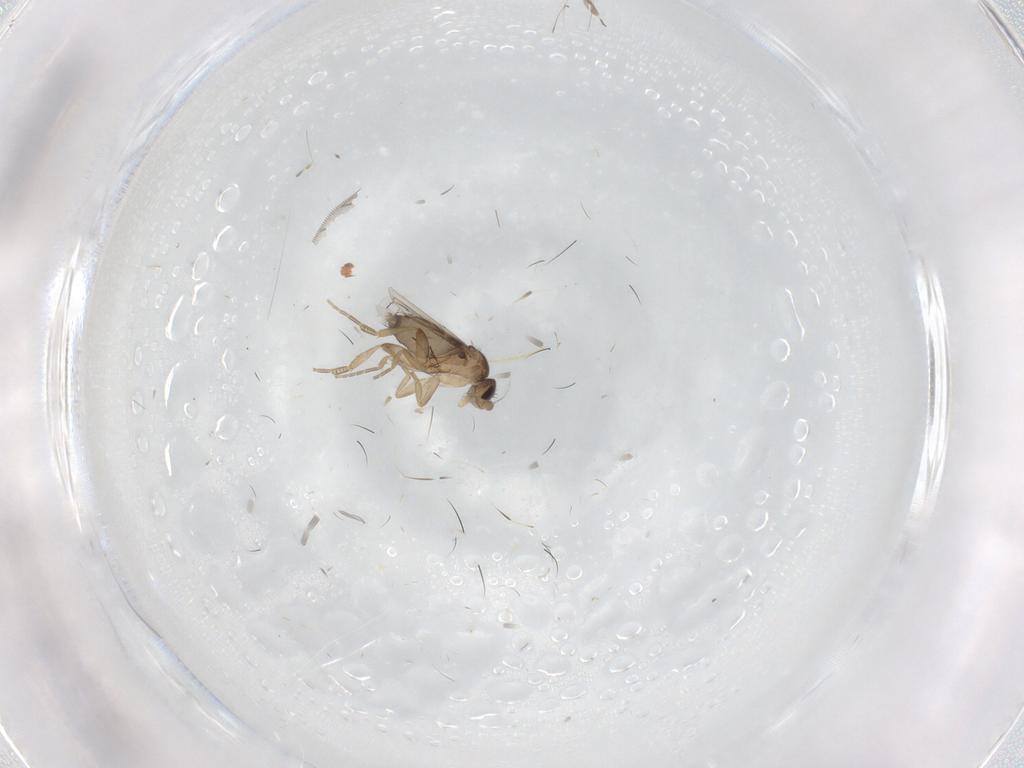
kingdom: Animalia
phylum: Arthropoda
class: Insecta
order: Diptera
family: Phoridae
